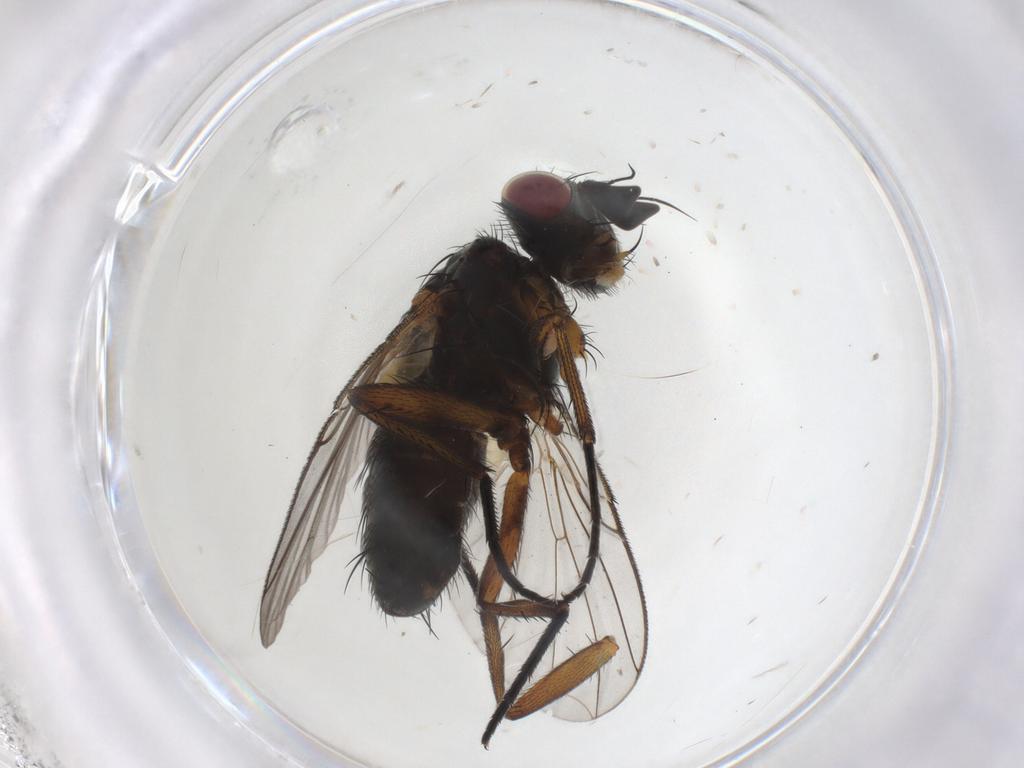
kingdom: Animalia
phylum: Arthropoda
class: Insecta
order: Diptera
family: Tachinidae
